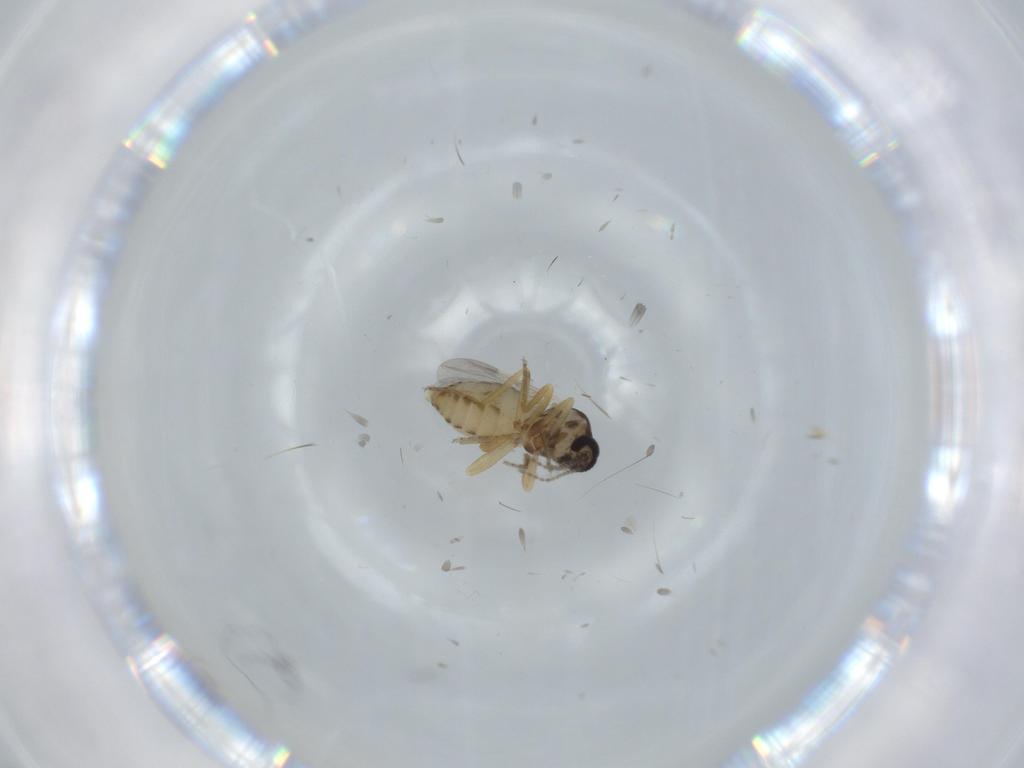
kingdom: Animalia
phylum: Arthropoda
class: Insecta
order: Diptera
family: Ceratopogonidae
